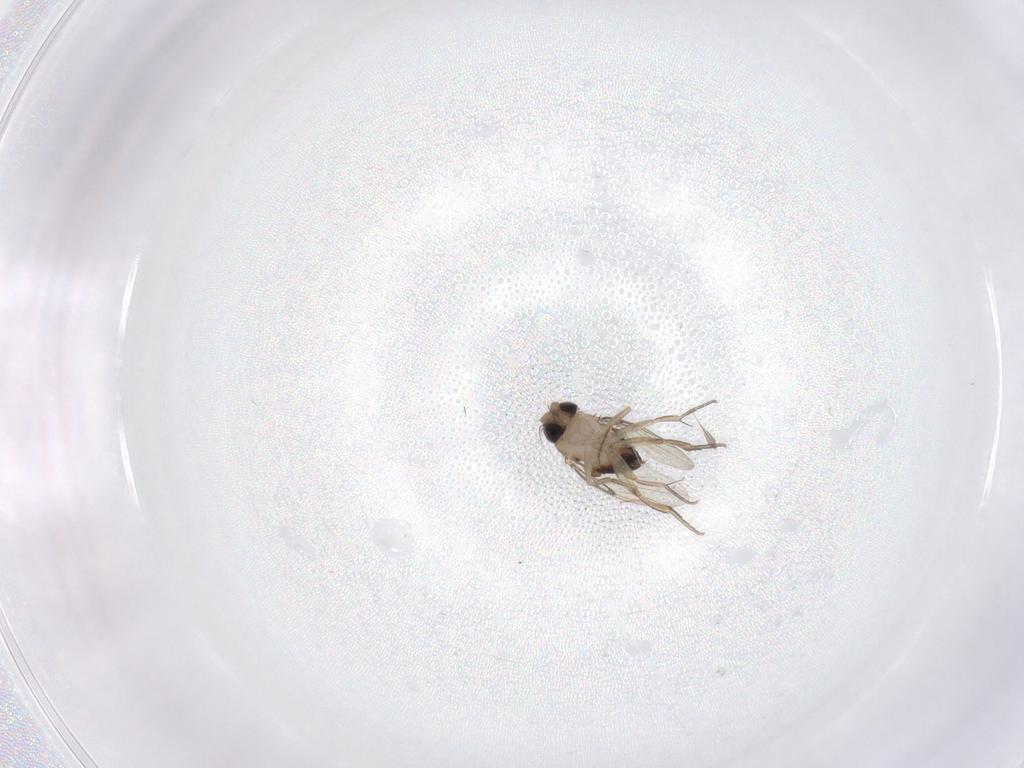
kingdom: Animalia
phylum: Arthropoda
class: Insecta
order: Diptera
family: Phoridae
